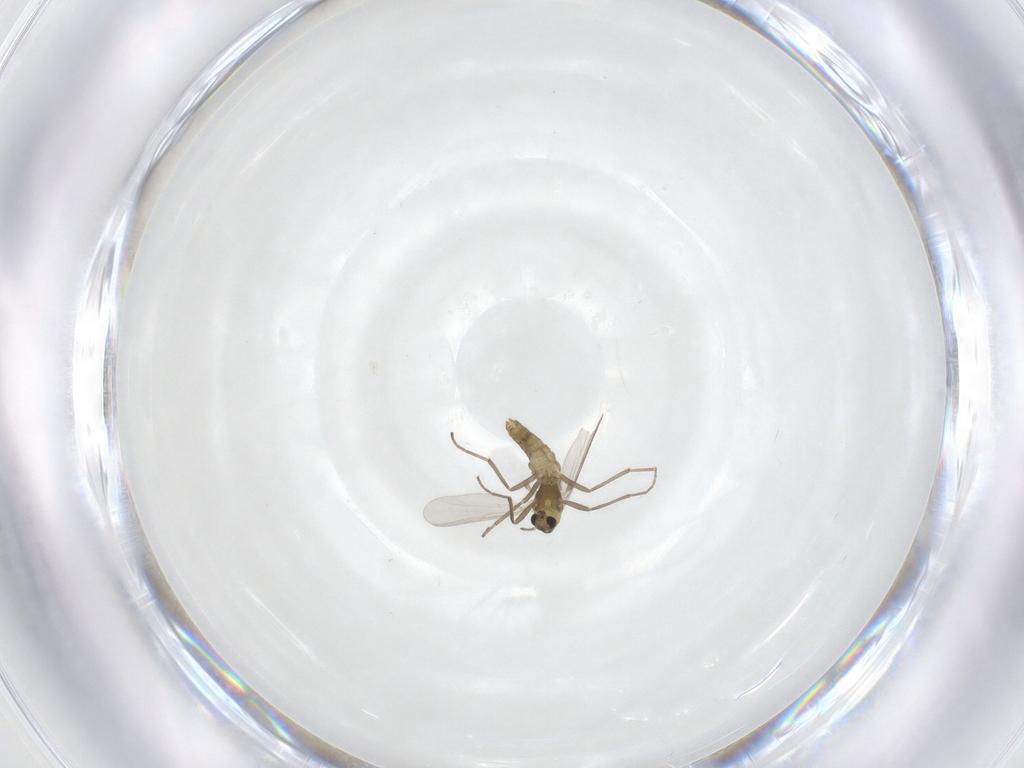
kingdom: Animalia
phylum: Arthropoda
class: Insecta
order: Diptera
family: Chironomidae
